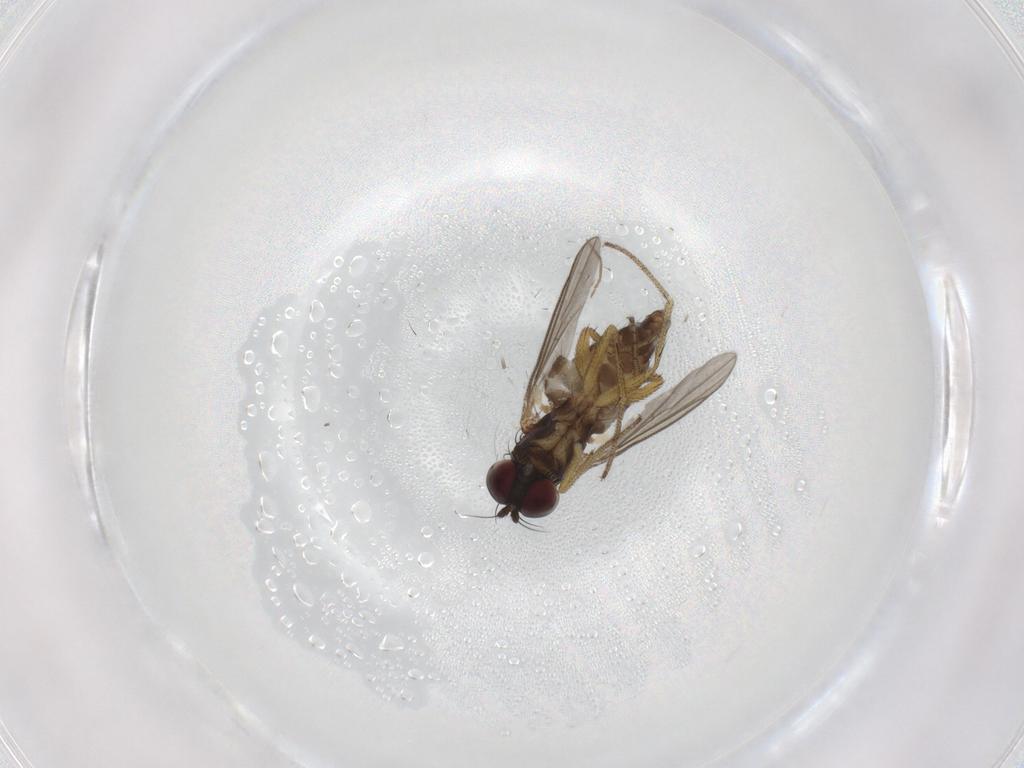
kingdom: Animalia
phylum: Arthropoda
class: Insecta
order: Diptera
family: Dolichopodidae
